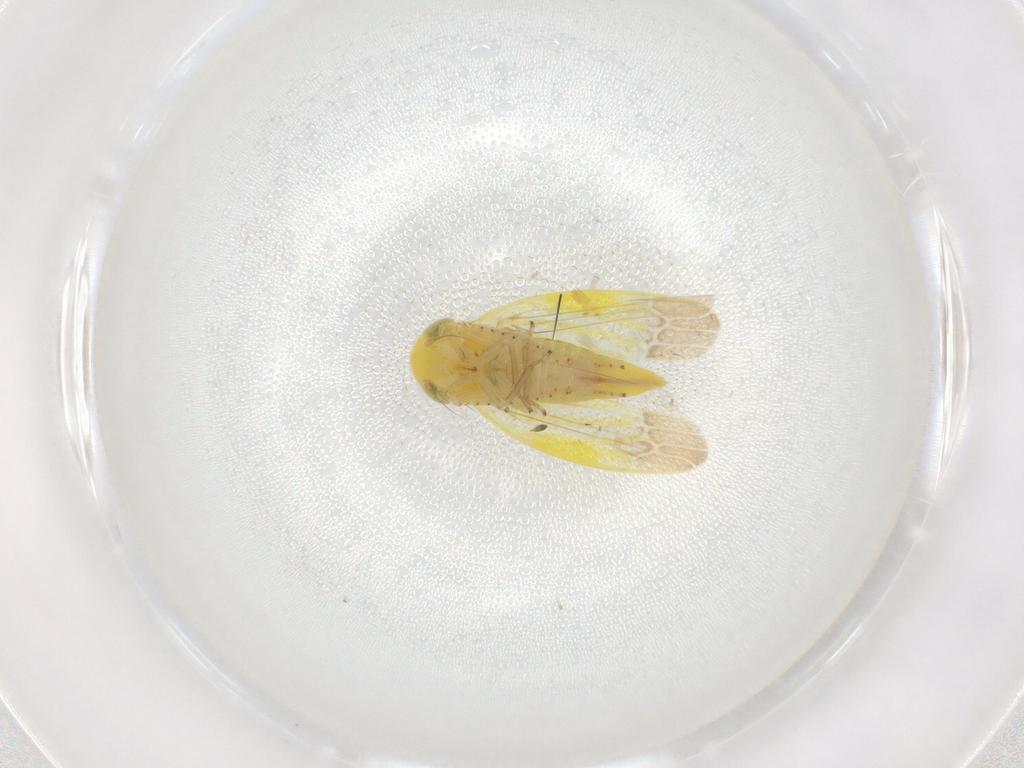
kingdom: Animalia
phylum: Arthropoda
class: Insecta
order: Hemiptera
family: Cicadellidae
